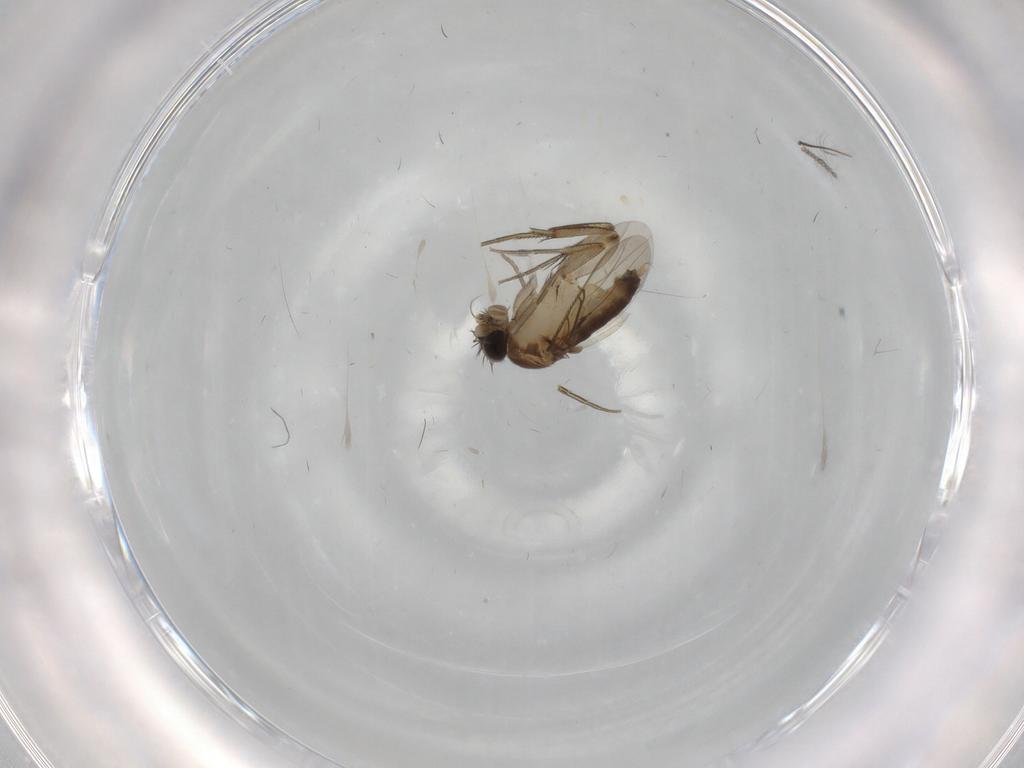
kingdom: Animalia
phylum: Arthropoda
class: Insecta
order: Diptera
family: Phoridae
